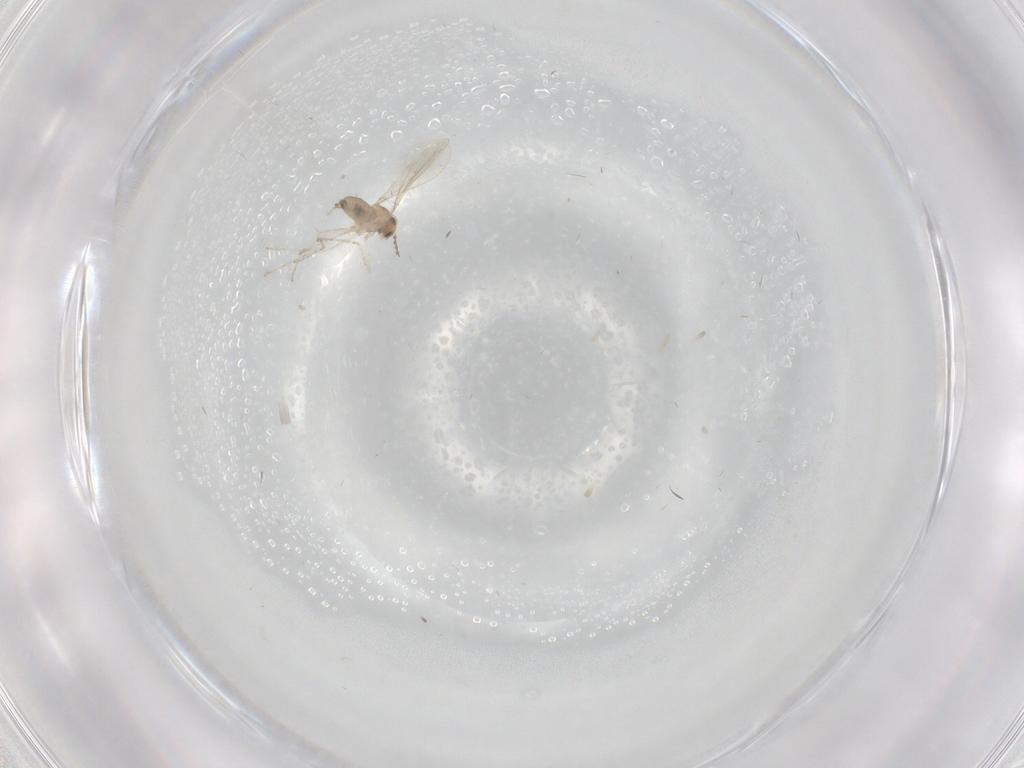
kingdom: Animalia
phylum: Arthropoda
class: Insecta
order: Diptera
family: Cecidomyiidae
